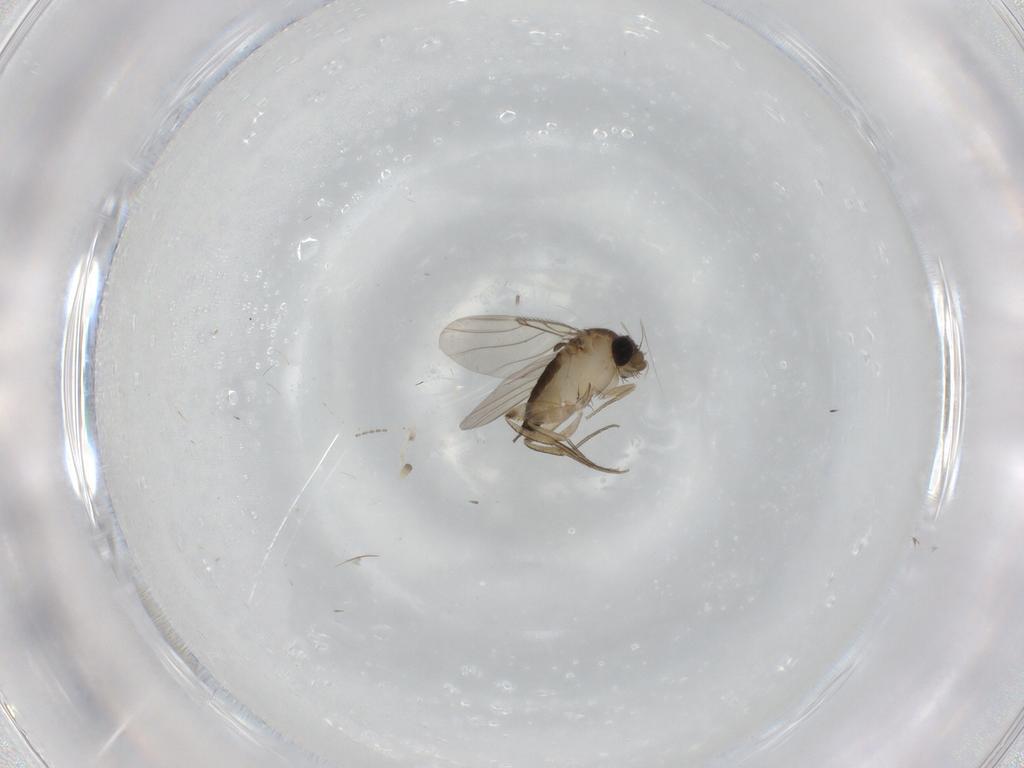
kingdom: Animalia
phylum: Arthropoda
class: Insecta
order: Diptera
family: Phoridae
